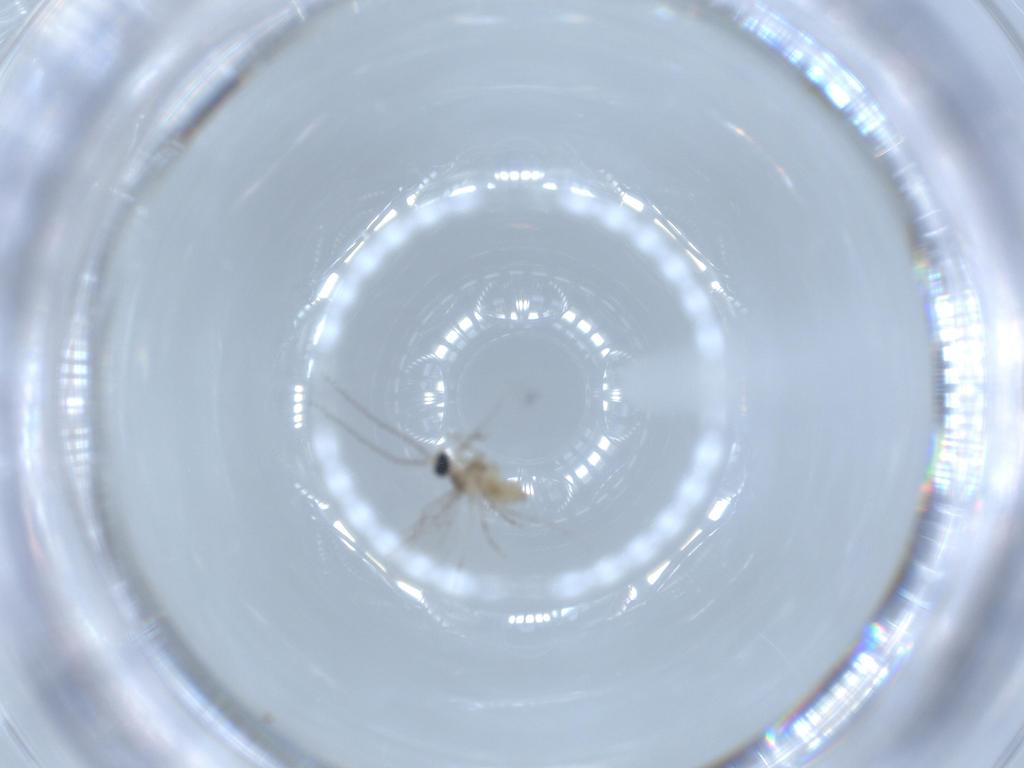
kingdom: Animalia
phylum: Arthropoda
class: Insecta
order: Diptera
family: Cecidomyiidae
